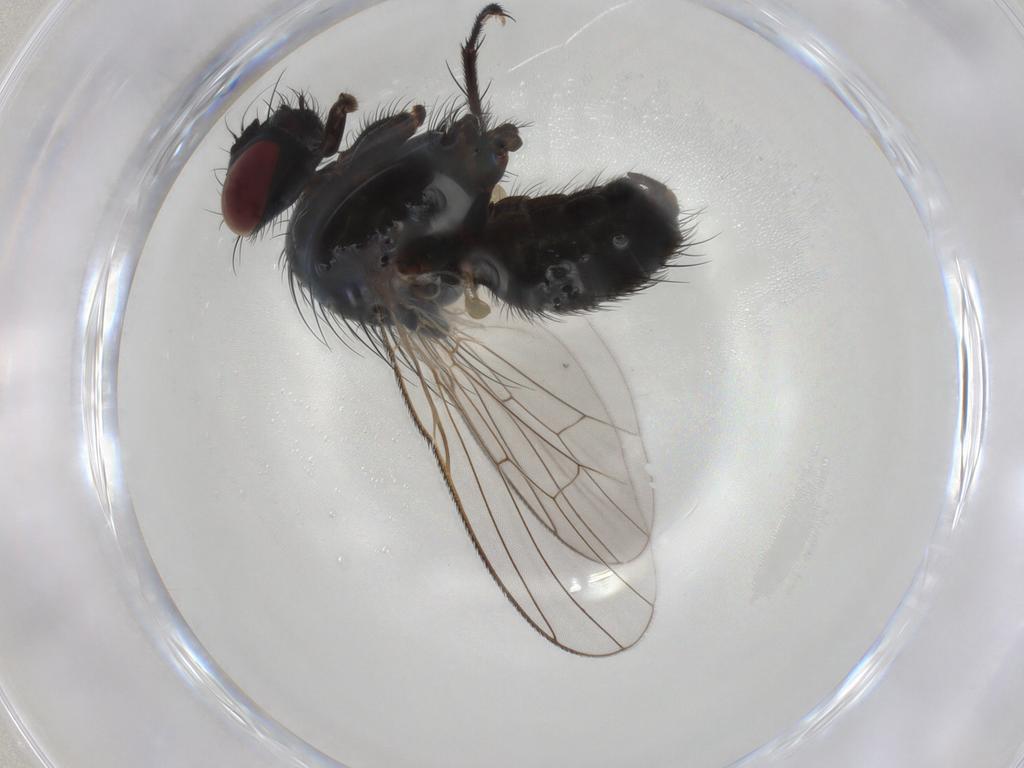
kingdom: Animalia
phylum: Arthropoda
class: Insecta
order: Diptera
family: Muscidae
